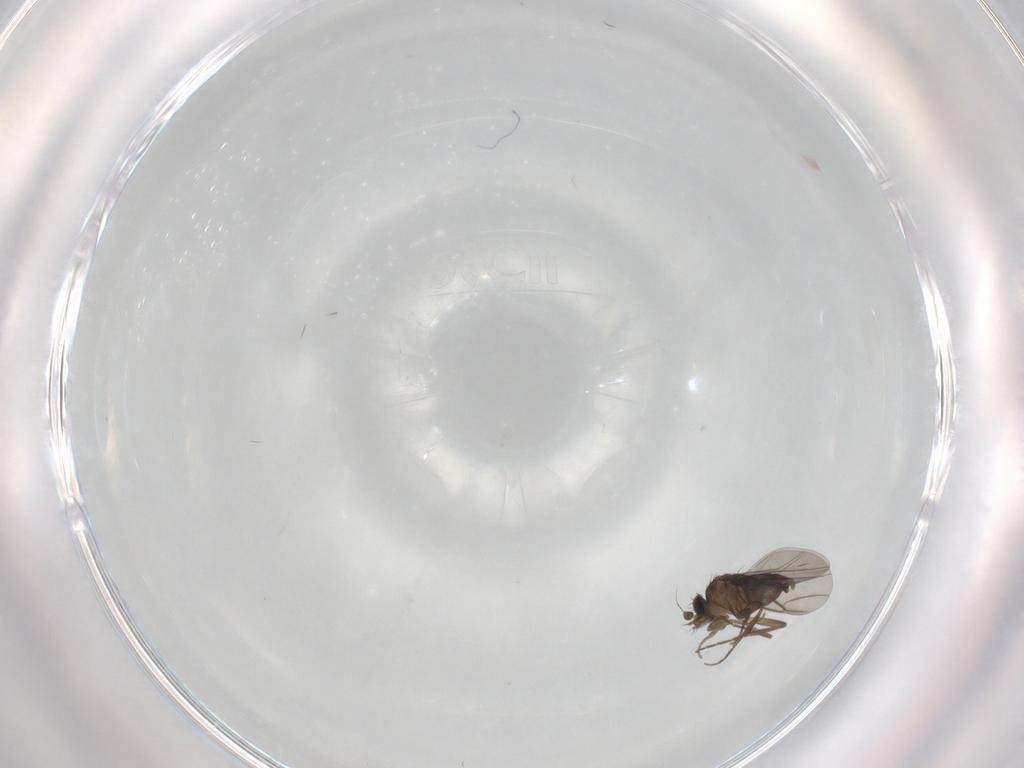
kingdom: Animalia
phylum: Arthropoda
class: Insecta
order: Diptera
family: Phoridae
